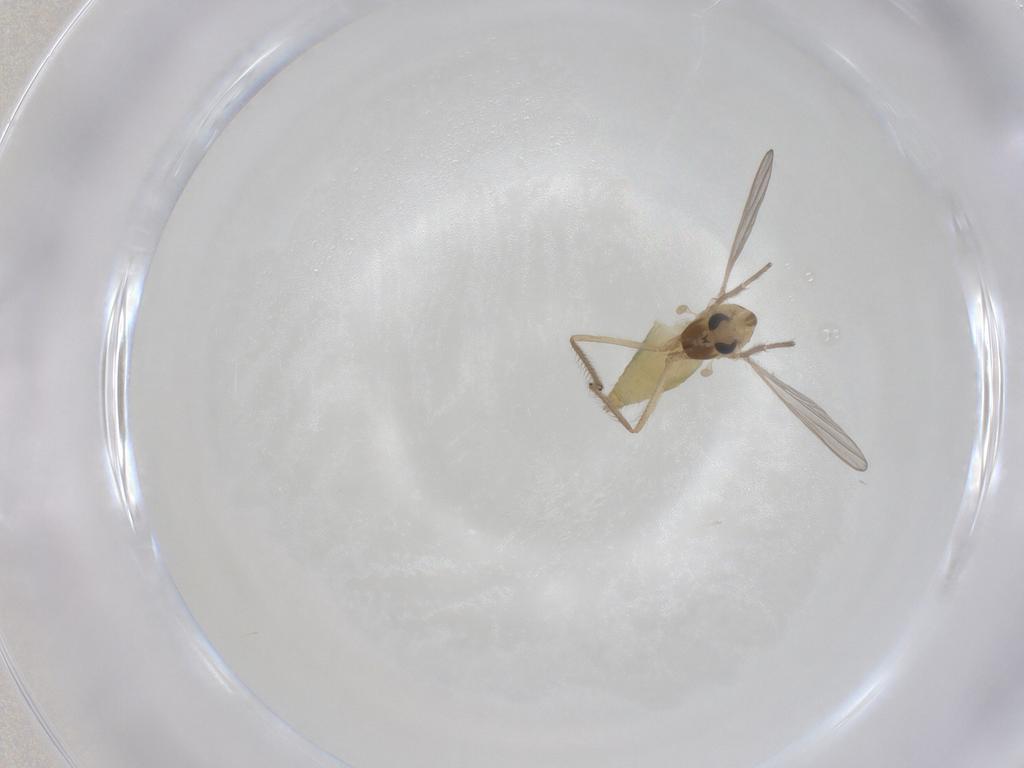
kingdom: Animalia
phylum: Arthropoda
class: Insecta
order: Diptera
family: Chironomidae
